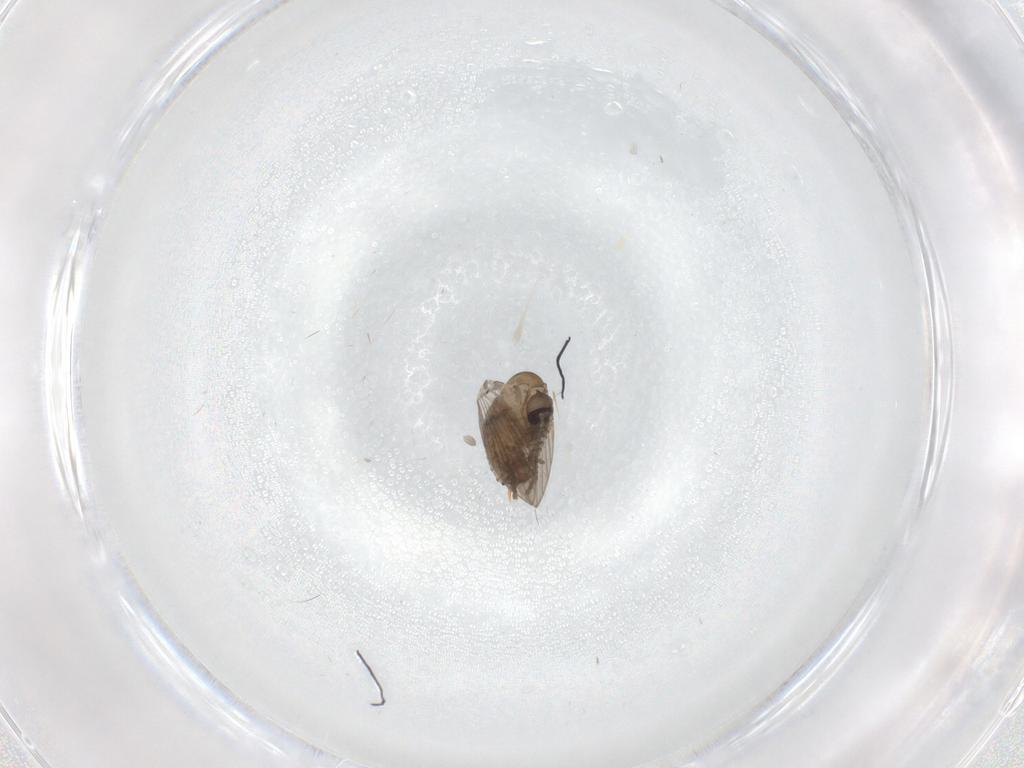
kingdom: Animalia
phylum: Arthropoda
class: Insecta
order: Diptera
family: Psychodidae
